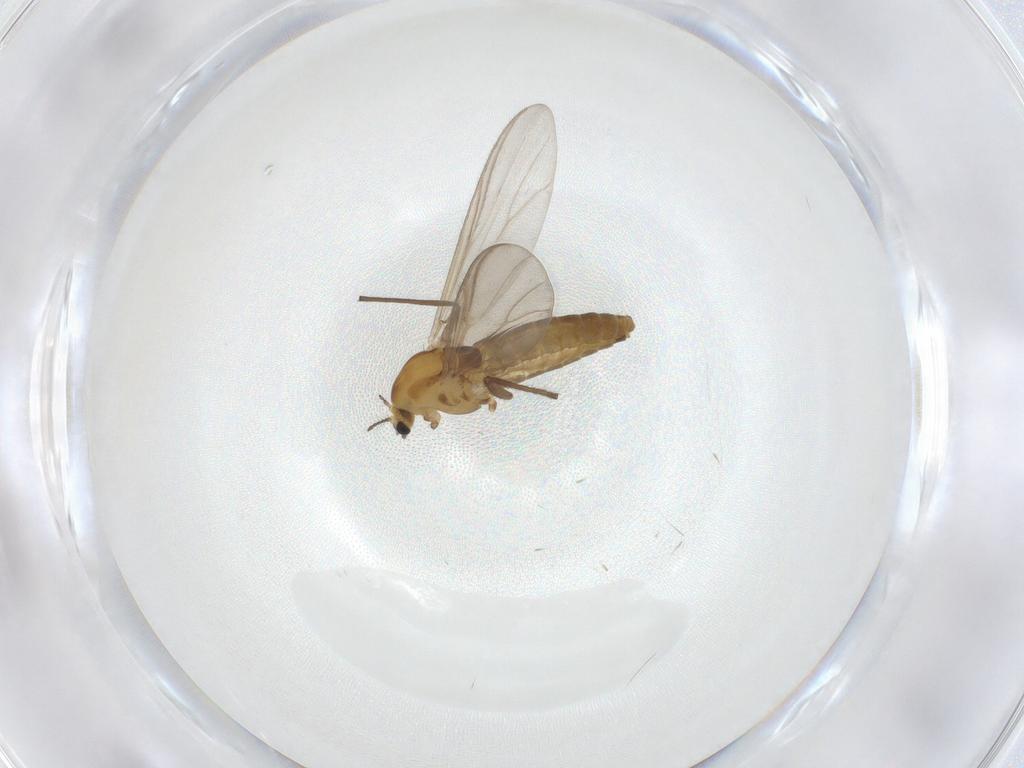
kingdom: Animalia
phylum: Arthropoda
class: Insecta
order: Diptera
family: Chironomidae
